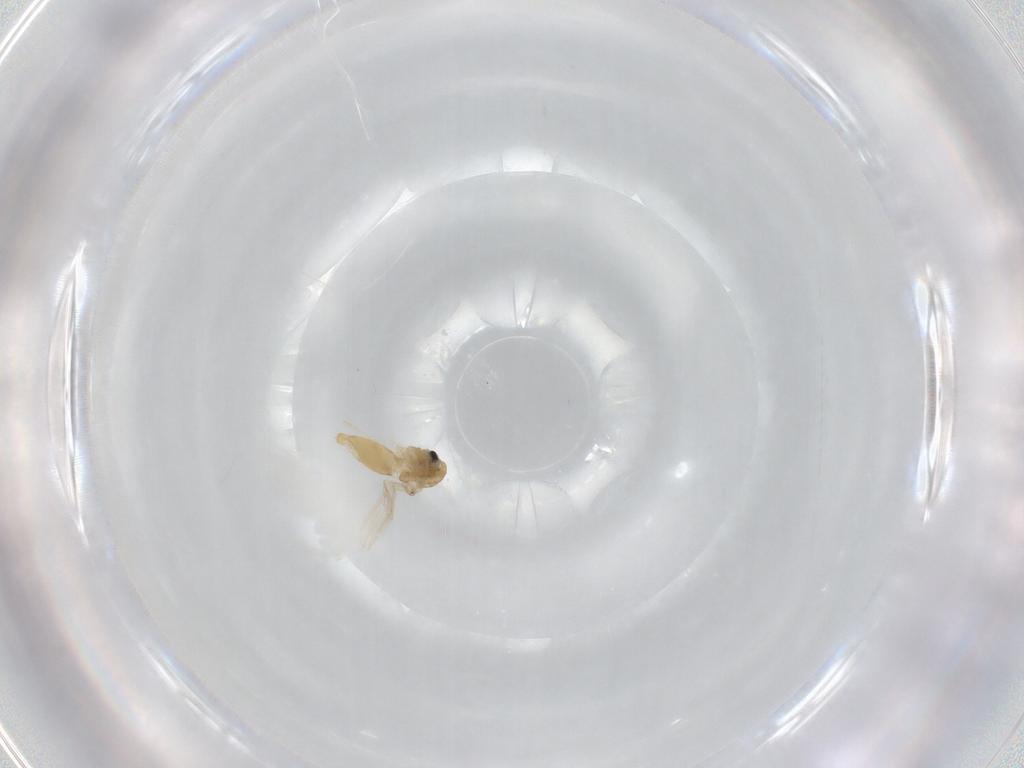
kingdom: Animalia
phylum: Arthropoda
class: Insecta
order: Diptera
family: Chironomidae
